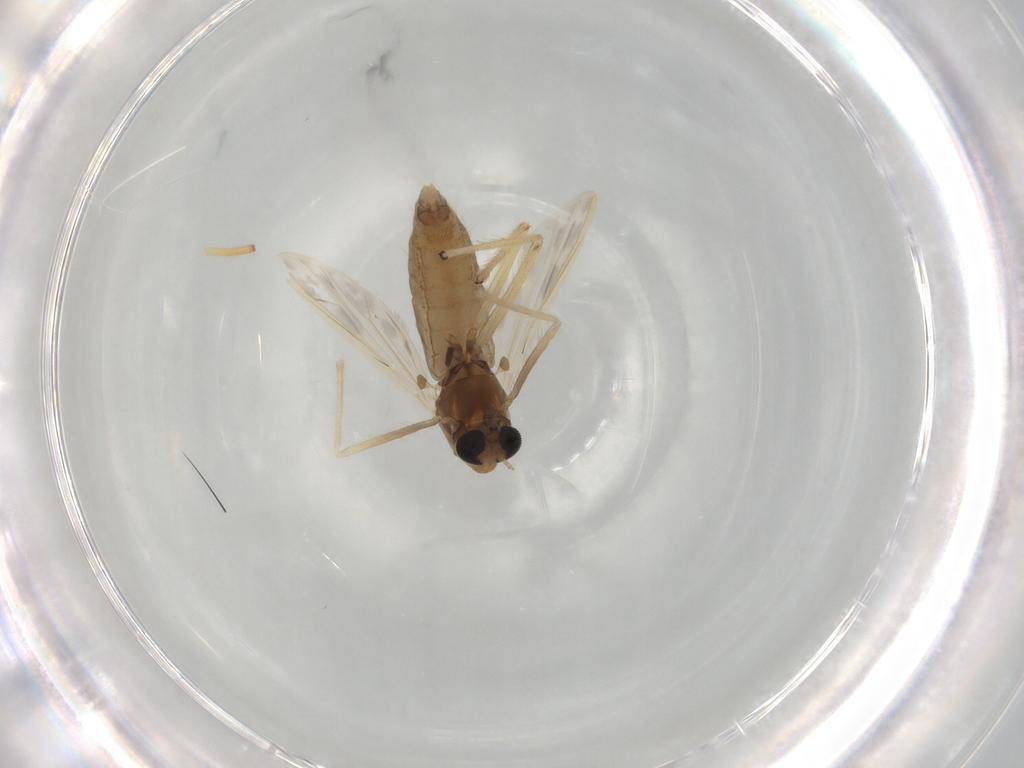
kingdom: Animalia
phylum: Arthropoda
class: Insecta
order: Diptera
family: Chironomidae
